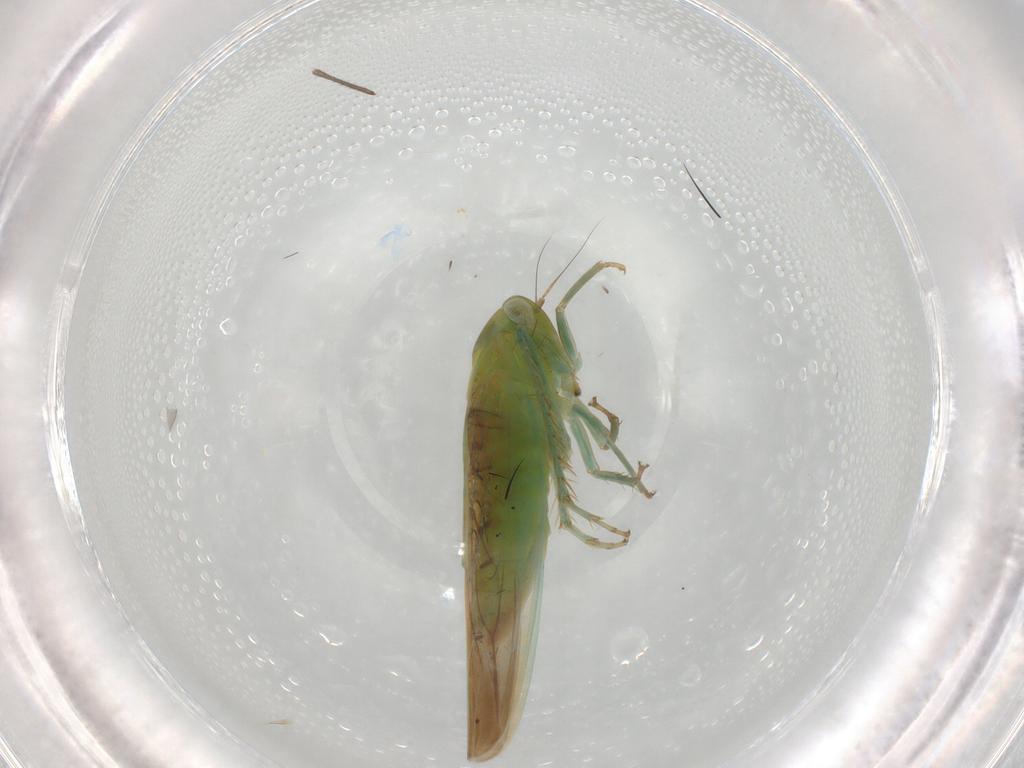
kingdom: Animalia
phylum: Arthropoda
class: Insecta
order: Hemiptera
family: Cicadellidae
